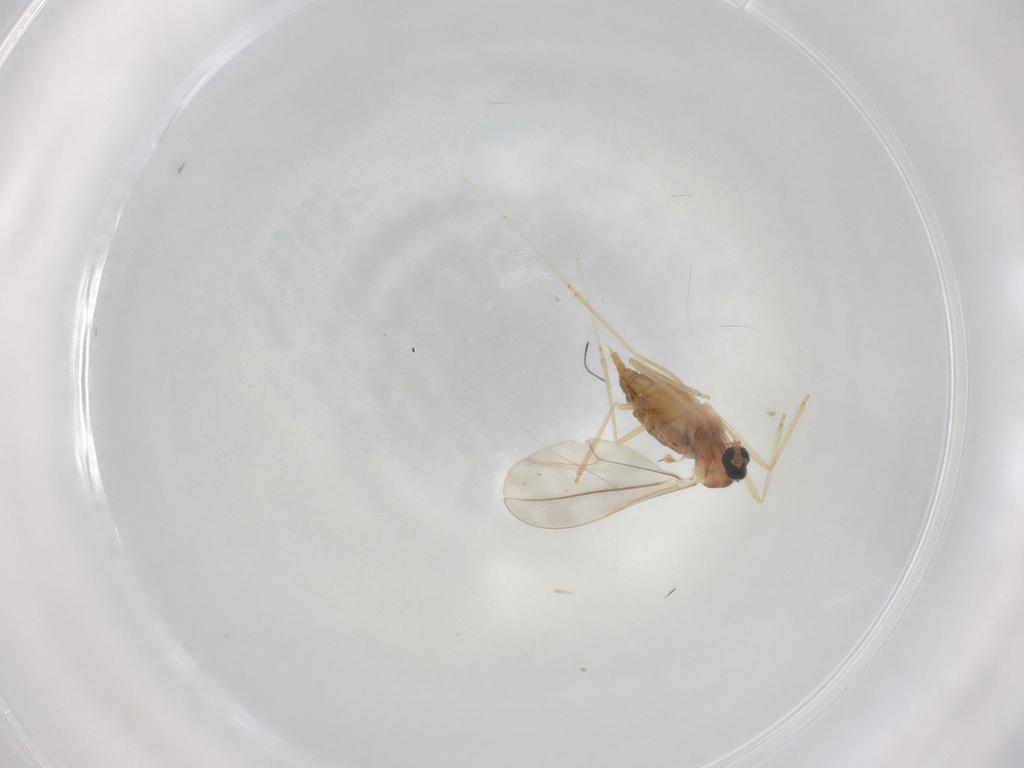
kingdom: Animalia
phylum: Arthropoda
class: Insecta
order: Diptera
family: Cecidomyiidae
